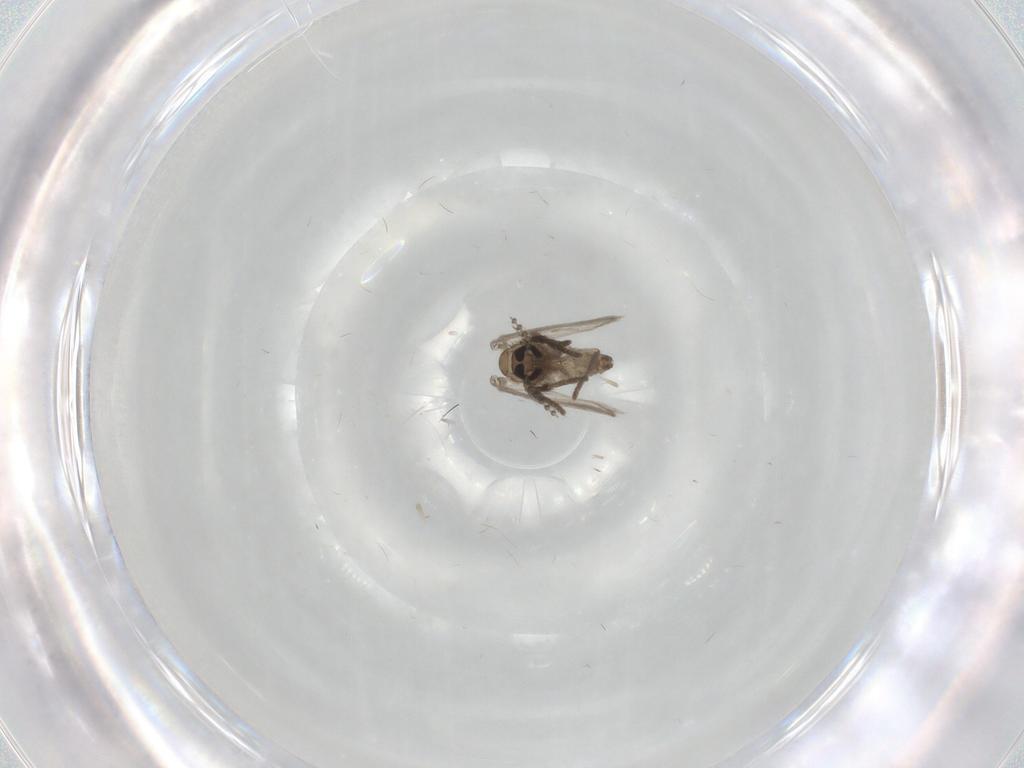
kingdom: Animalia
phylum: Arthropoda
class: Insecta
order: Diptera
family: Psychodidae
